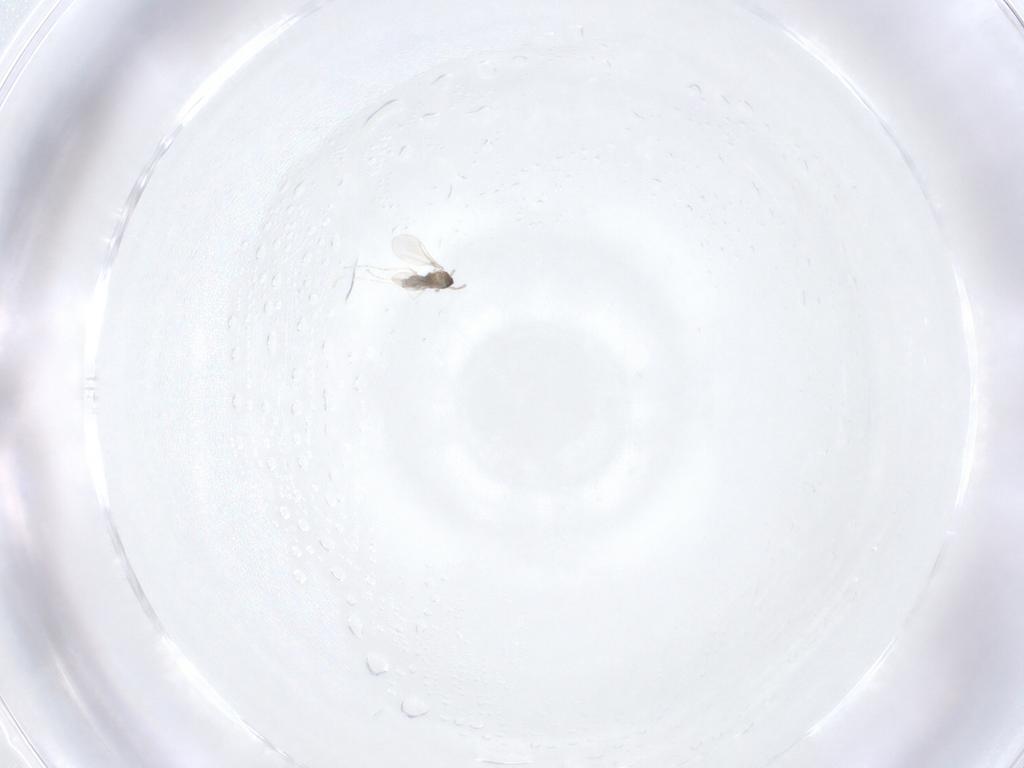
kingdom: Animalia
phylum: Arthropoda
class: Insecta
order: Diptera
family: Cecidomyiidae
